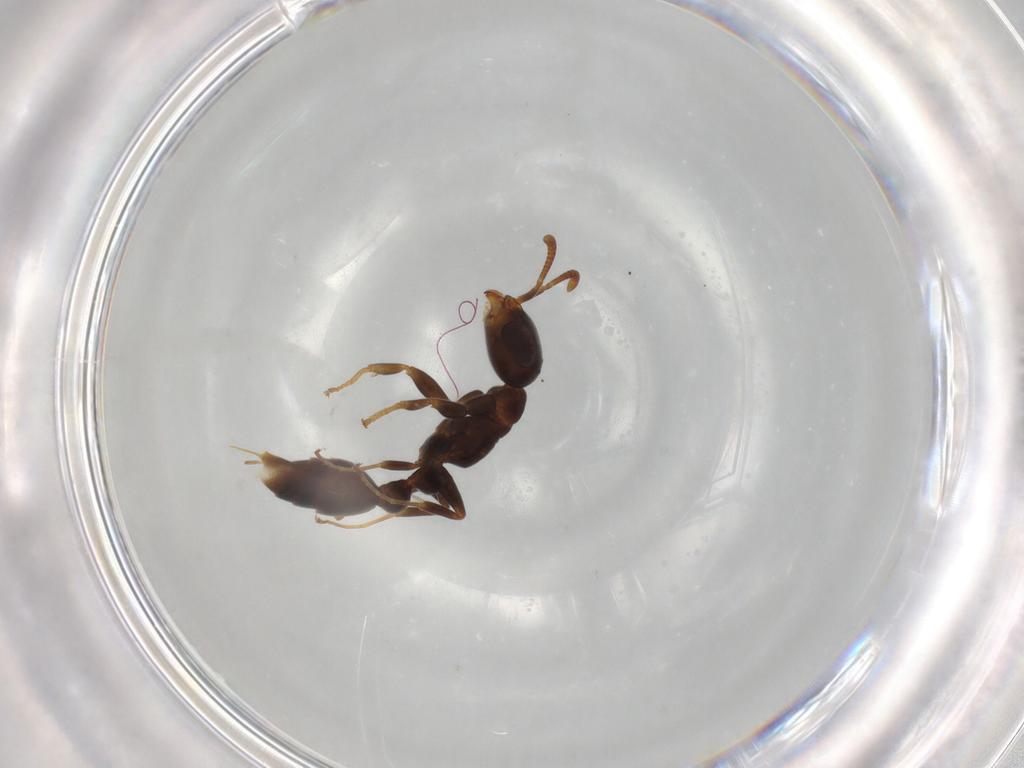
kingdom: Animalia
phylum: Arthropoda
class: Insecta
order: Hymenoptera
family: Formicidae
